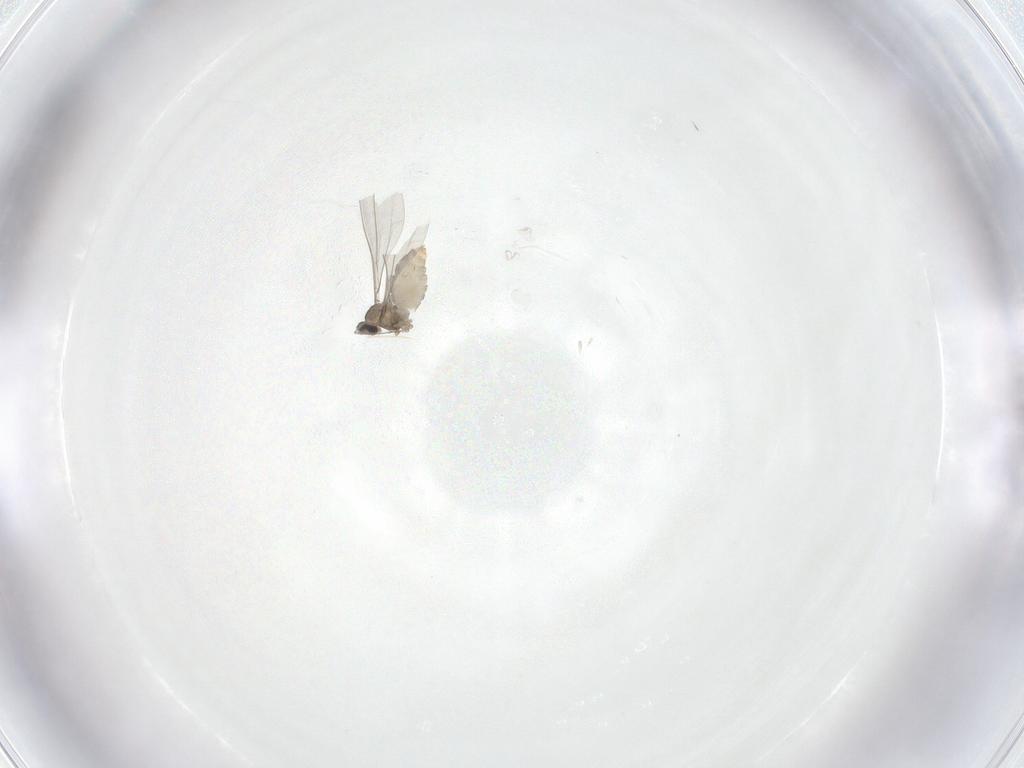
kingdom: Animalia
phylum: Arthropoda
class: Insecta
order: Diptera
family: Cecidomyiidae
